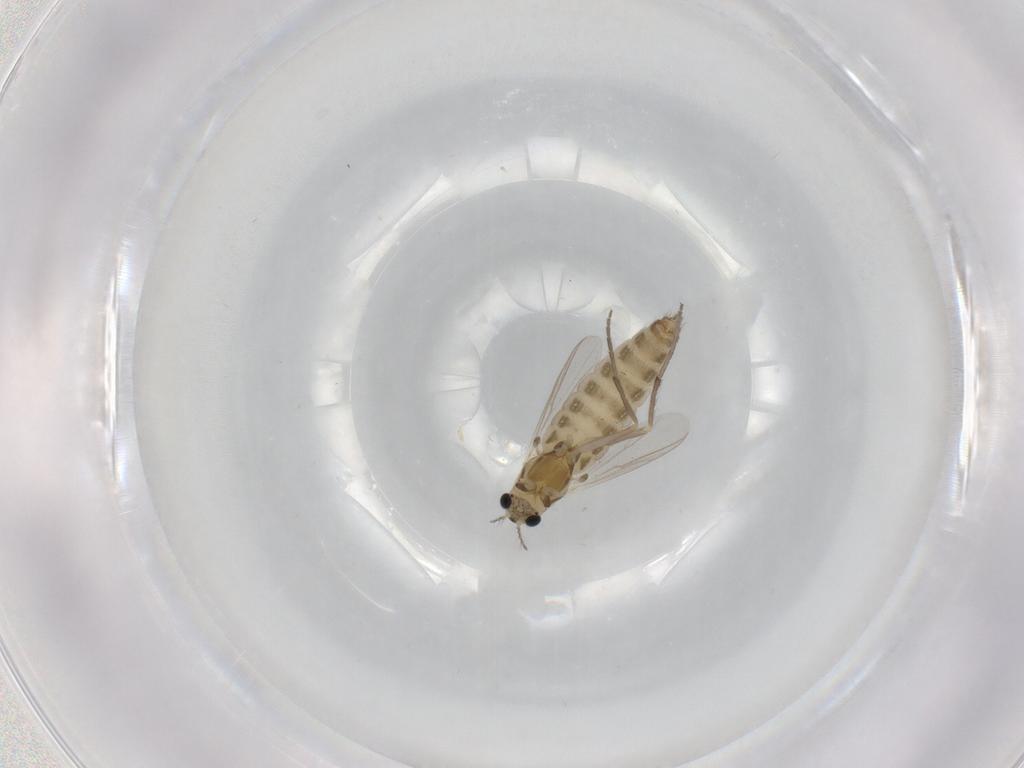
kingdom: Animalia
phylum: Arthropoda
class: Insecta
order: Diptera
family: Chironomidae
